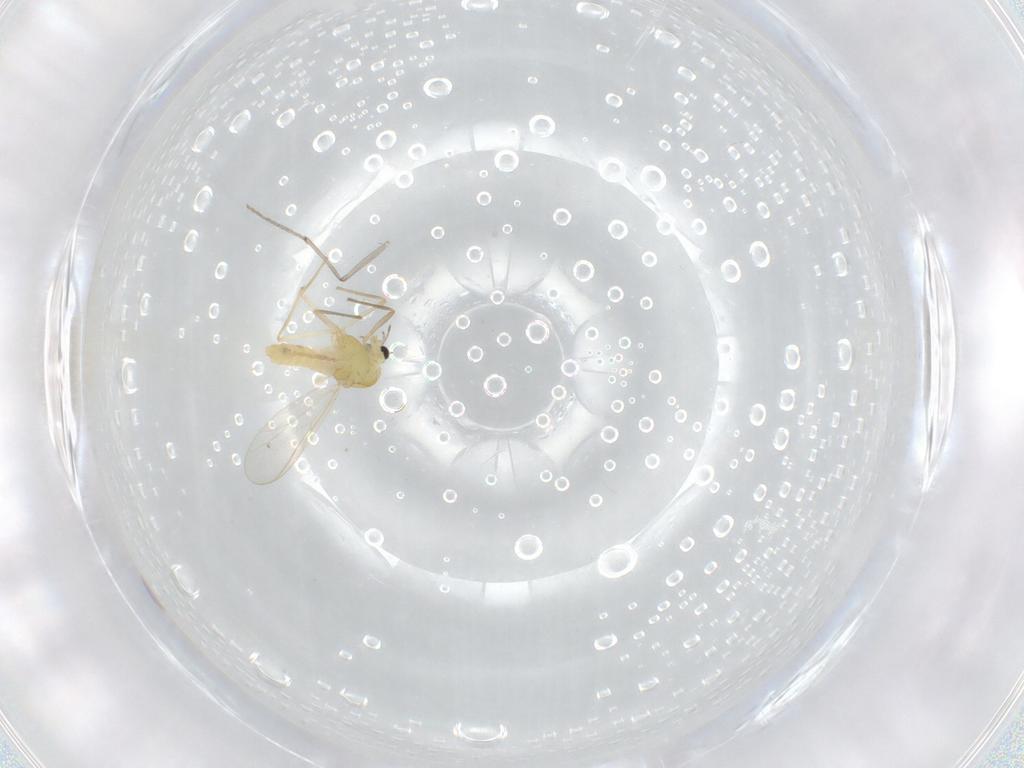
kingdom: Animalia
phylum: Arthropoda
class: Insecta
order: Diptera
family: Chironomidae
